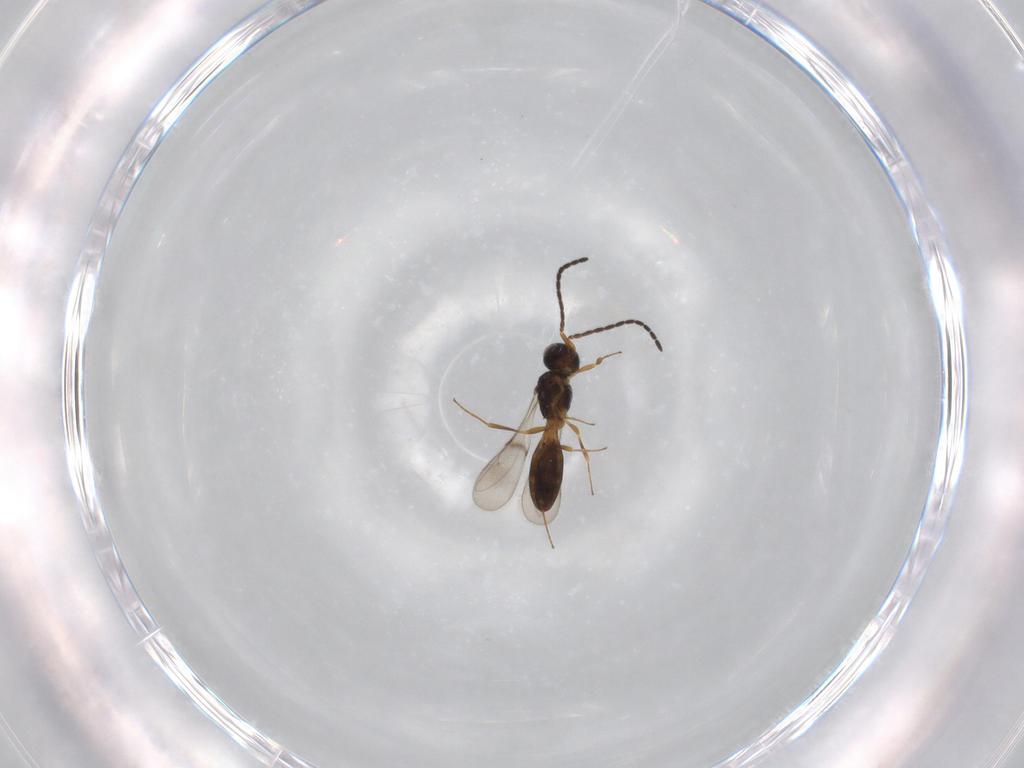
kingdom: Animalia
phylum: Arthropoda
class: Insecta
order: Hymenoptera
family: Scelionidae
